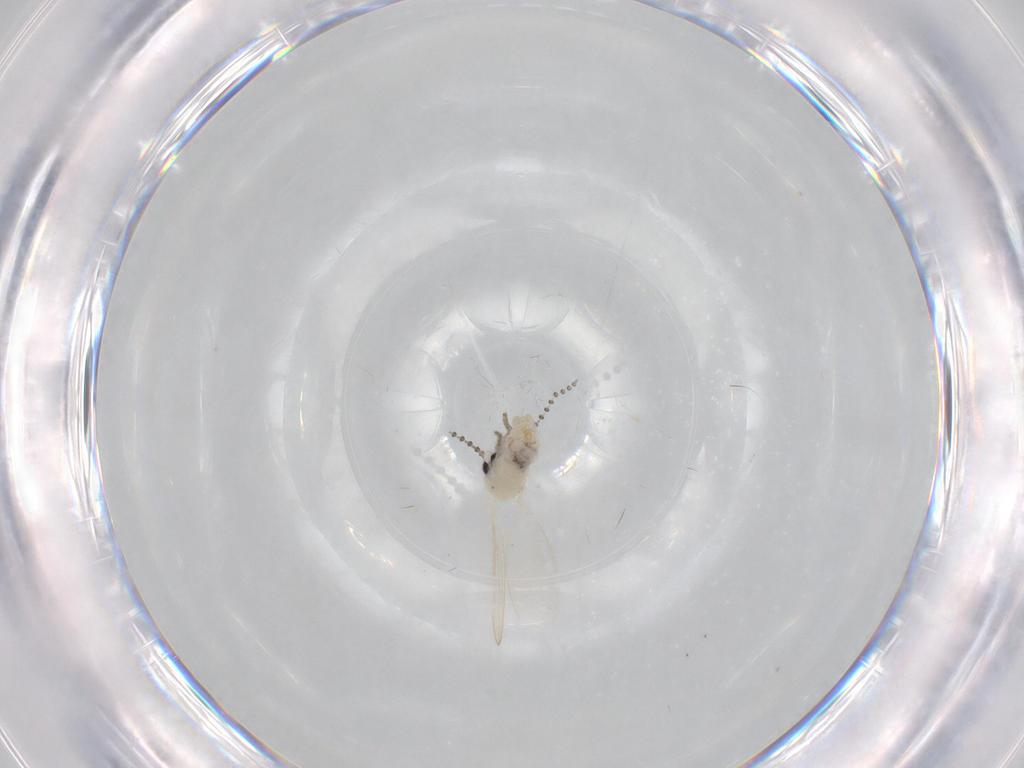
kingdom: Animalia
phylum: Arthropoda
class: Insecta
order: Diptera
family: Psychodidae
